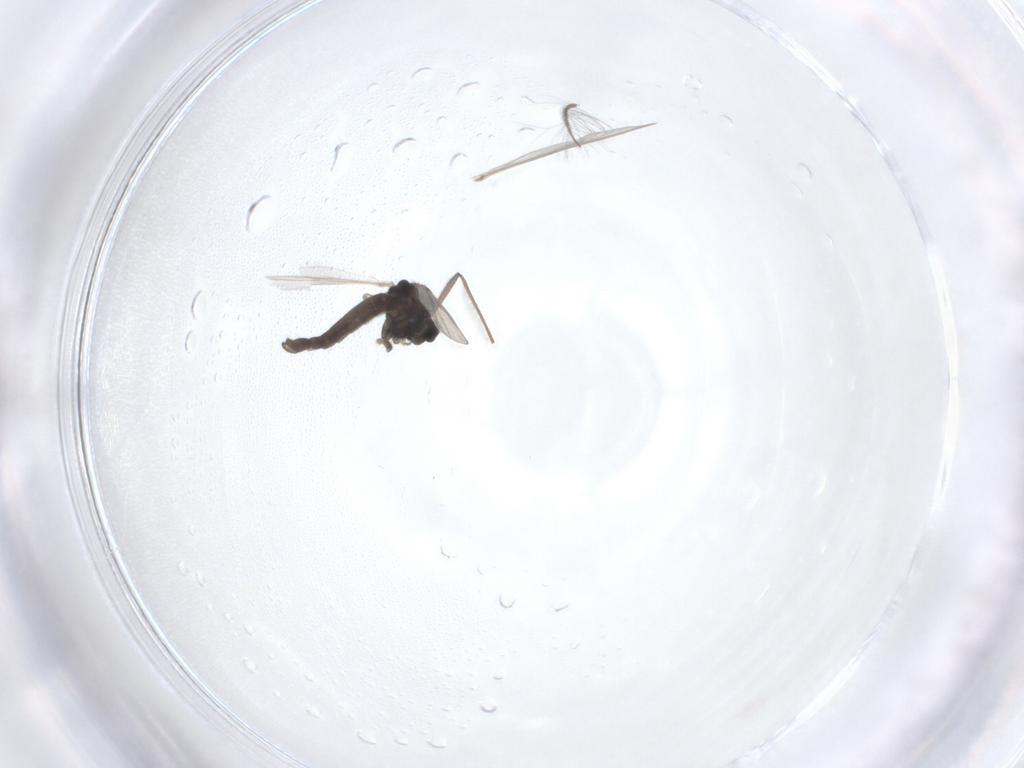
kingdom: Animalia
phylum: Arthropoda
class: Insecta
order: Diptera
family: Chironomidae
